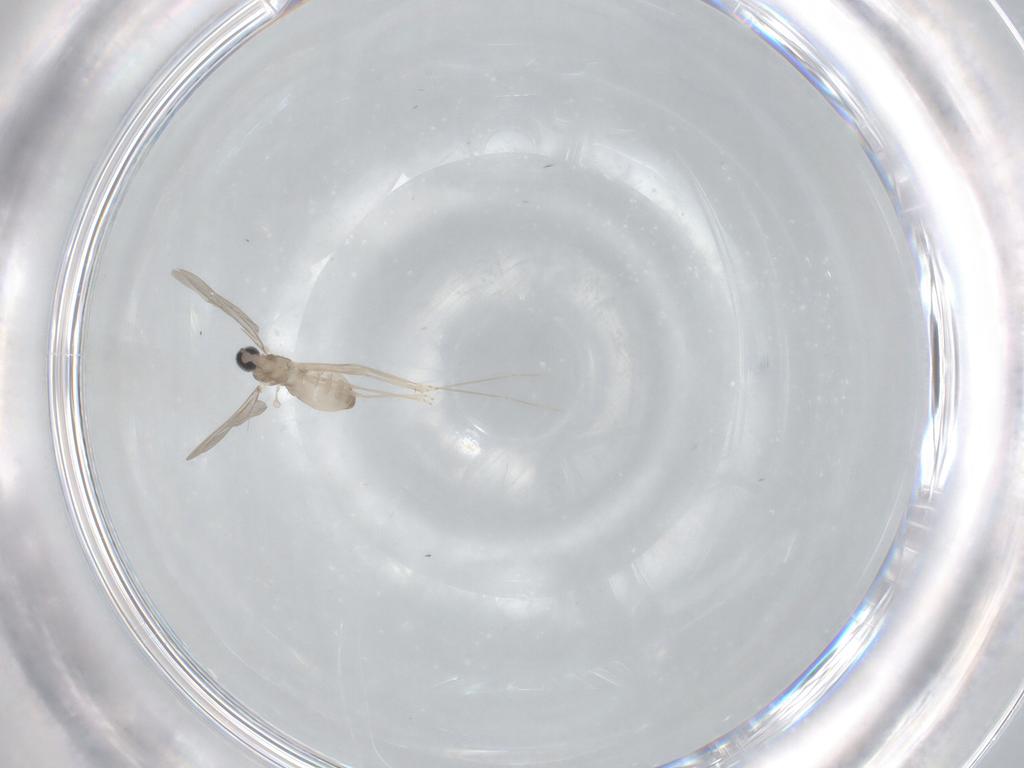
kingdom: Animalia
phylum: Arthropoda
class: Insecta
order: Diptera
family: Cecidomyiidae
